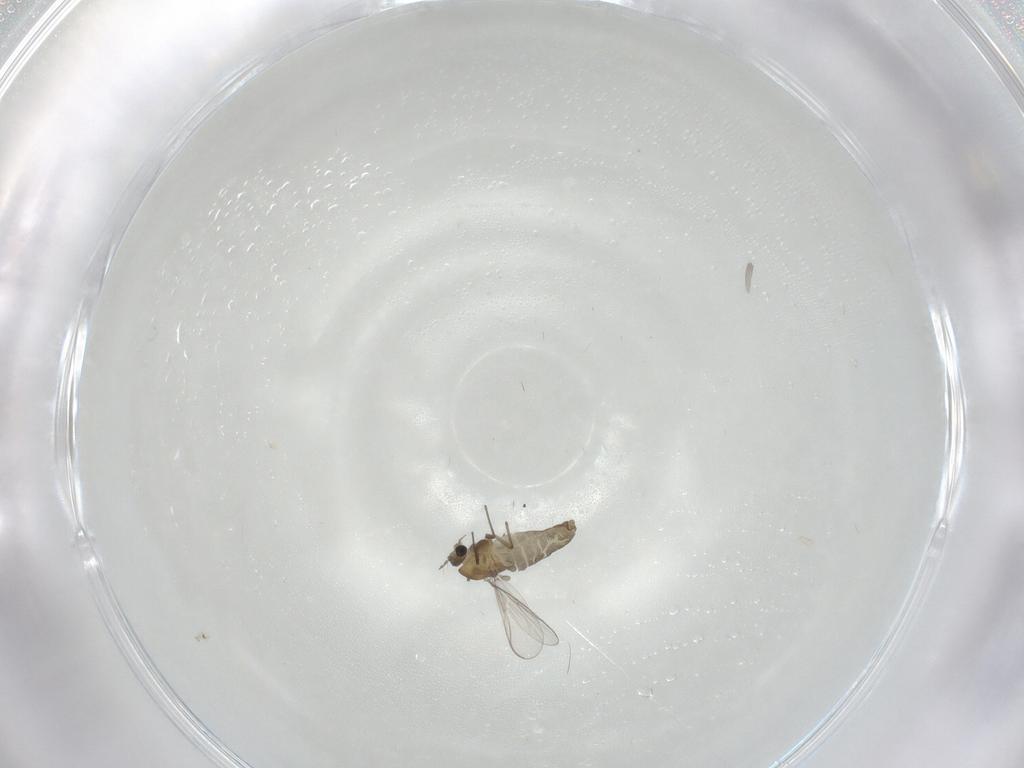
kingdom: Animalia
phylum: Arthropoda
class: Insecta
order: Diptera
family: Chironomidae
